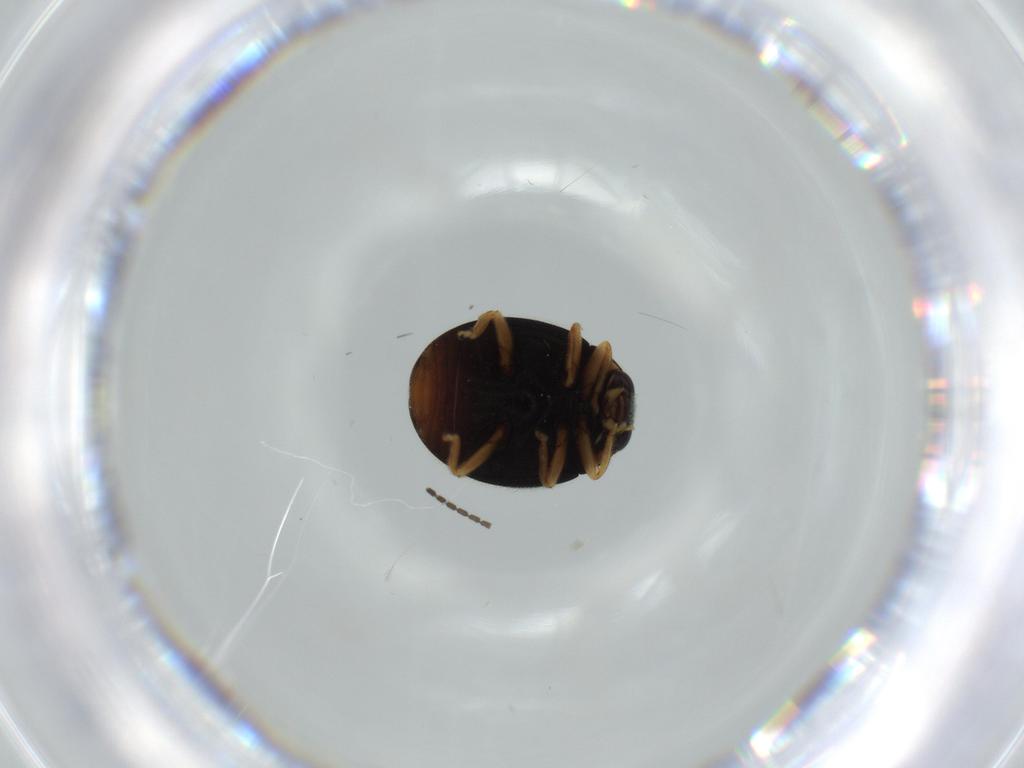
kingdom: Animalia
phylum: Arthropoda
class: Insecta
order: Coleoptera
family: Coccinellidae
